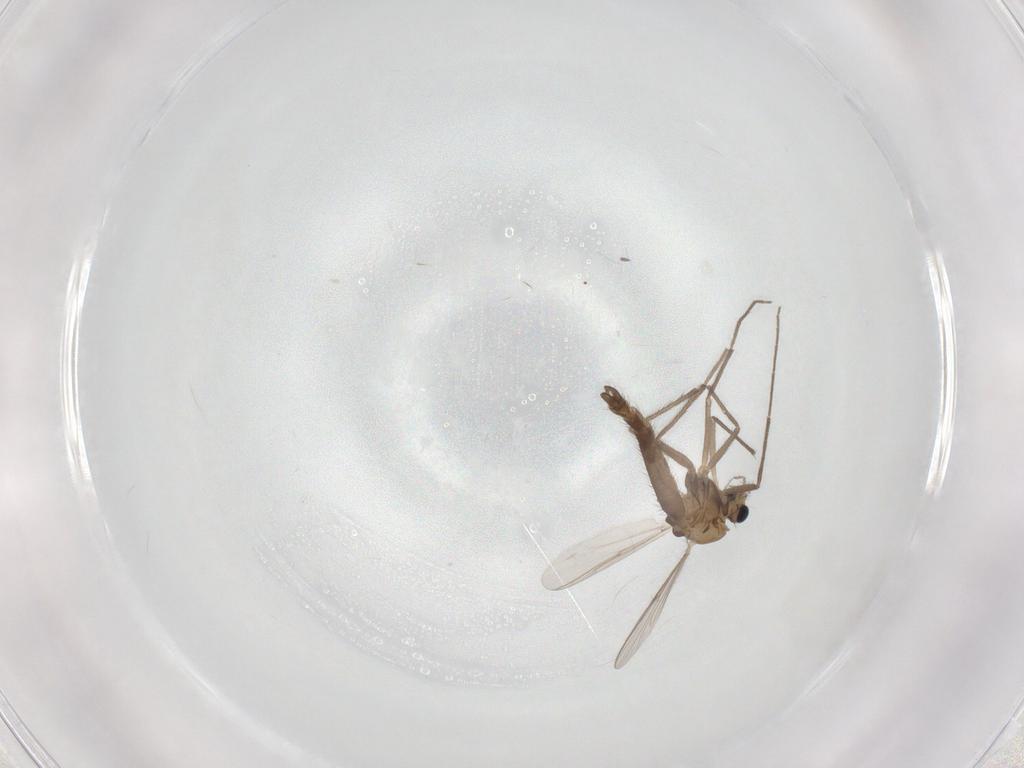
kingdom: Animalia
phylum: Arthropoda
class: Insecta
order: Diptera
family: Chironomidae
